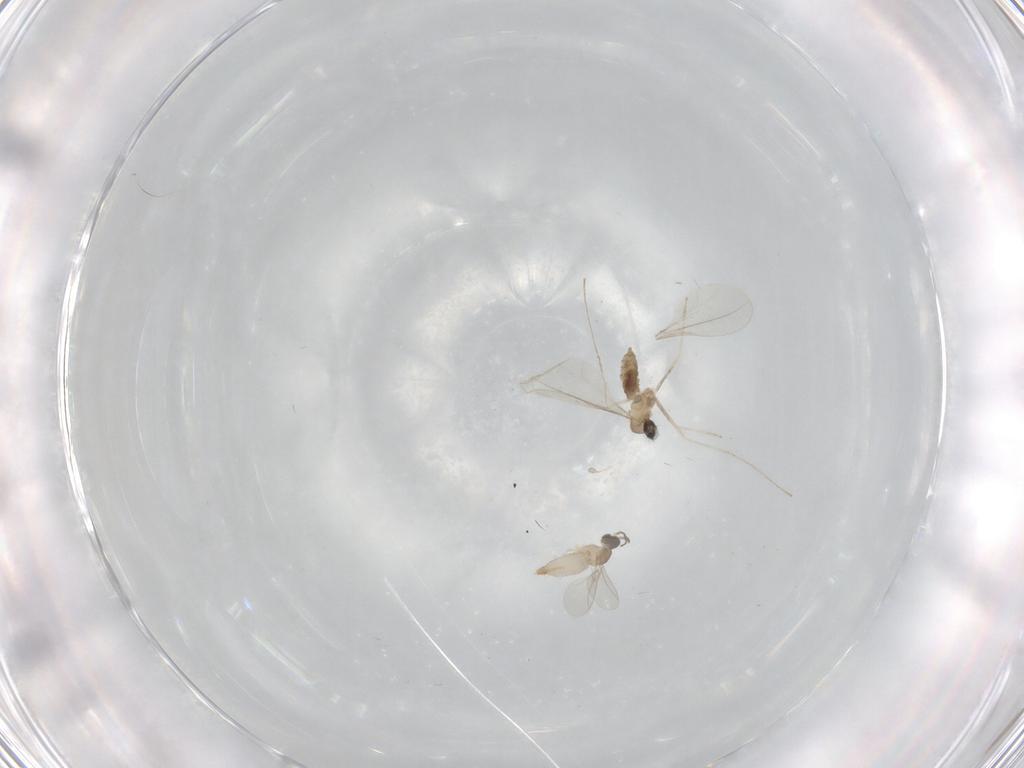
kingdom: Animalia
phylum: Arthropoda
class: Insecta
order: Diptera
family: Cecidomyiidae
